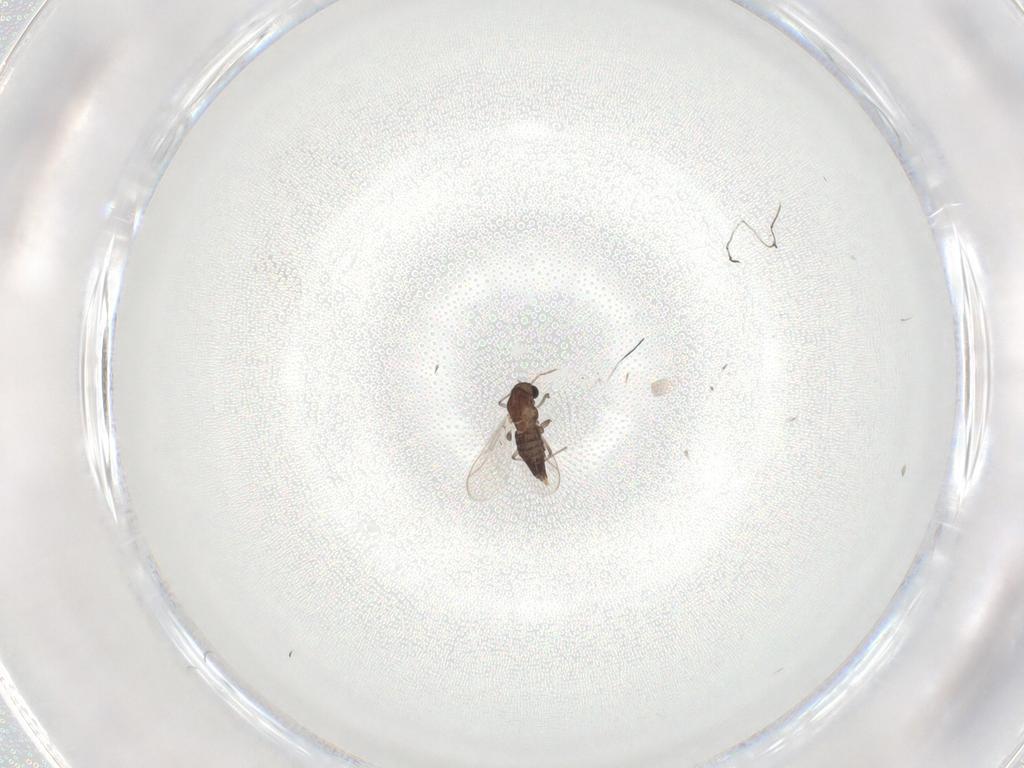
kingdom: Animalia
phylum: Arthropoda
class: Insecta
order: Diptera
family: Chironomidae
